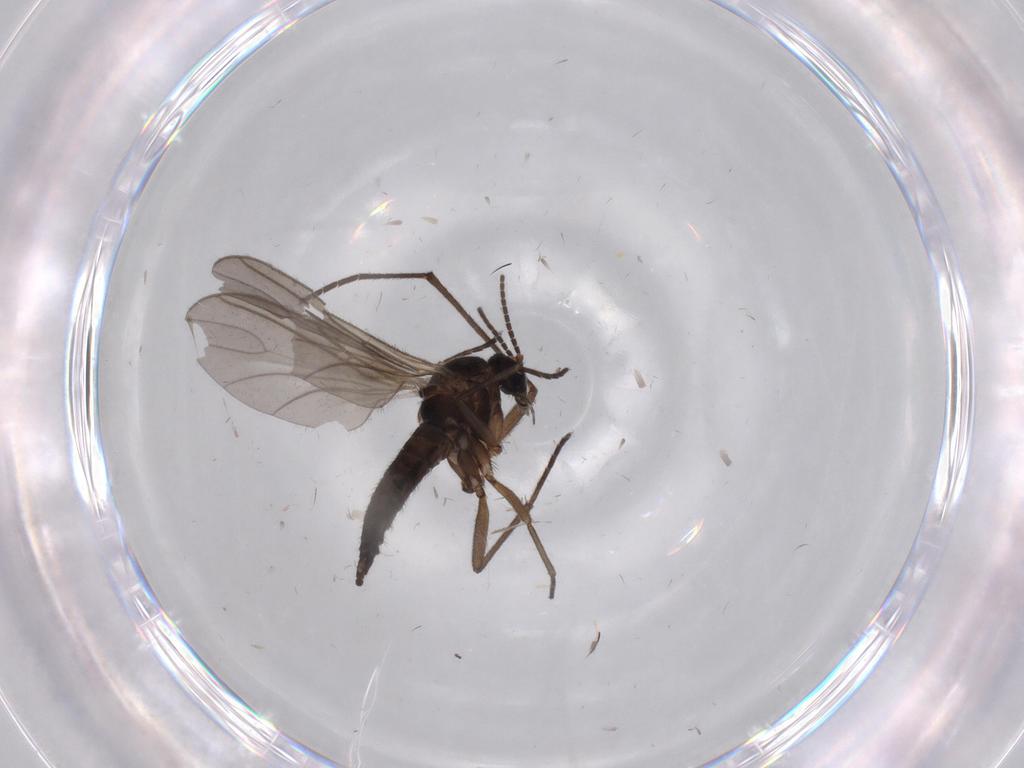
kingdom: Animalia
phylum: Arthropoda
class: Insecta
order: Diptera
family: Sciaridae
